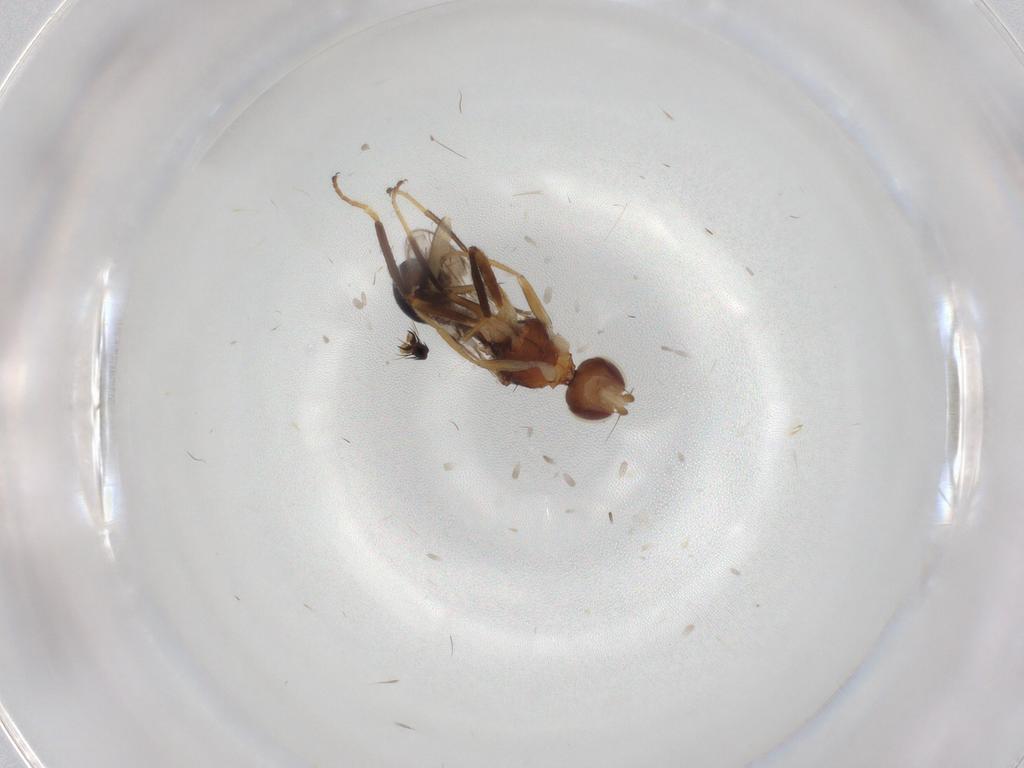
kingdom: Animalia
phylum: Arthropoda
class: Insecta
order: Diptera
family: Chloropidae
